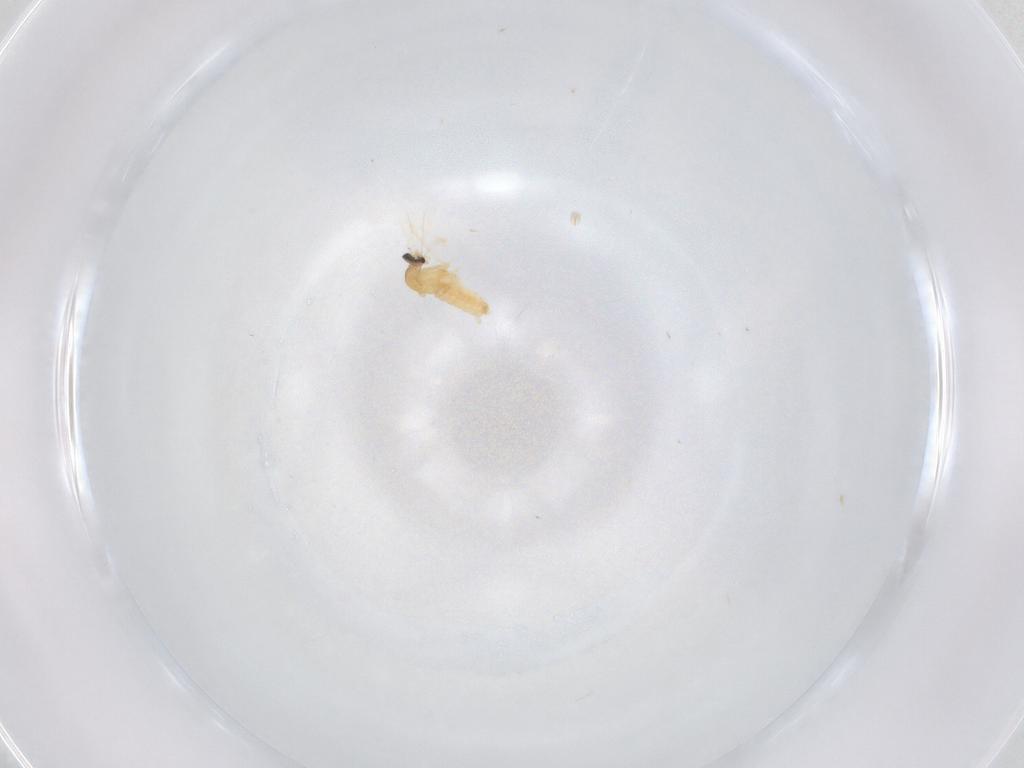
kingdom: Animalia
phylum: Arthropoda
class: Insecta
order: Diptera
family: Cecidomyiidae
